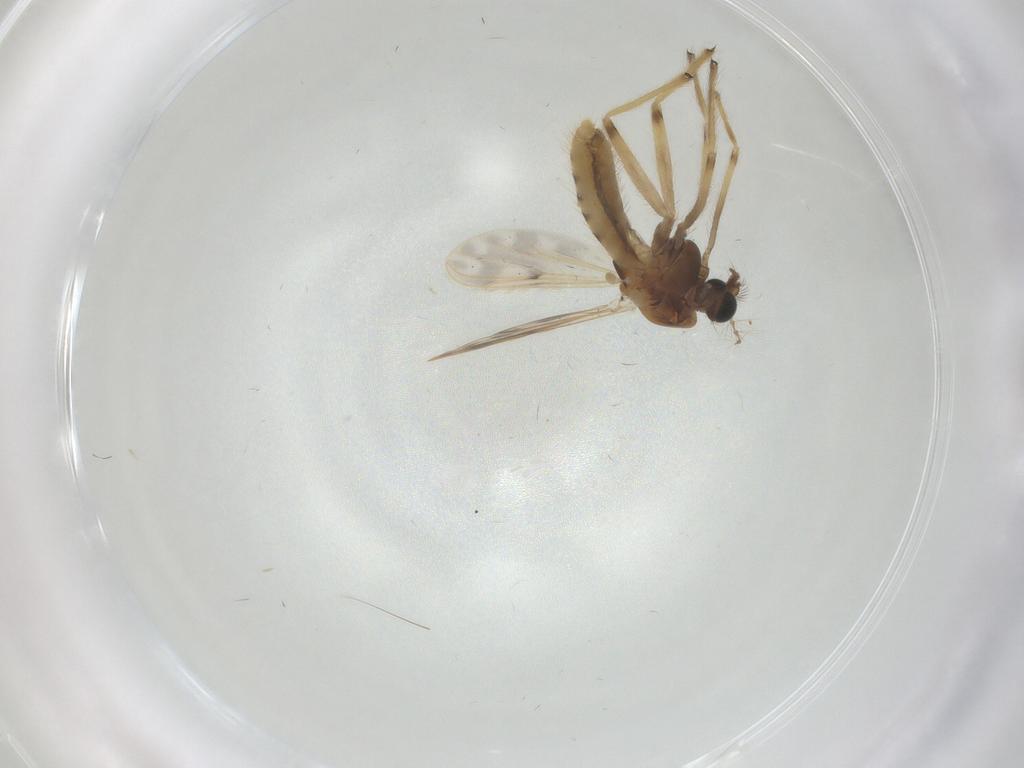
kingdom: Animalia
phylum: Arthropoda
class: Insecta
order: Diptera
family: Chironomidae
